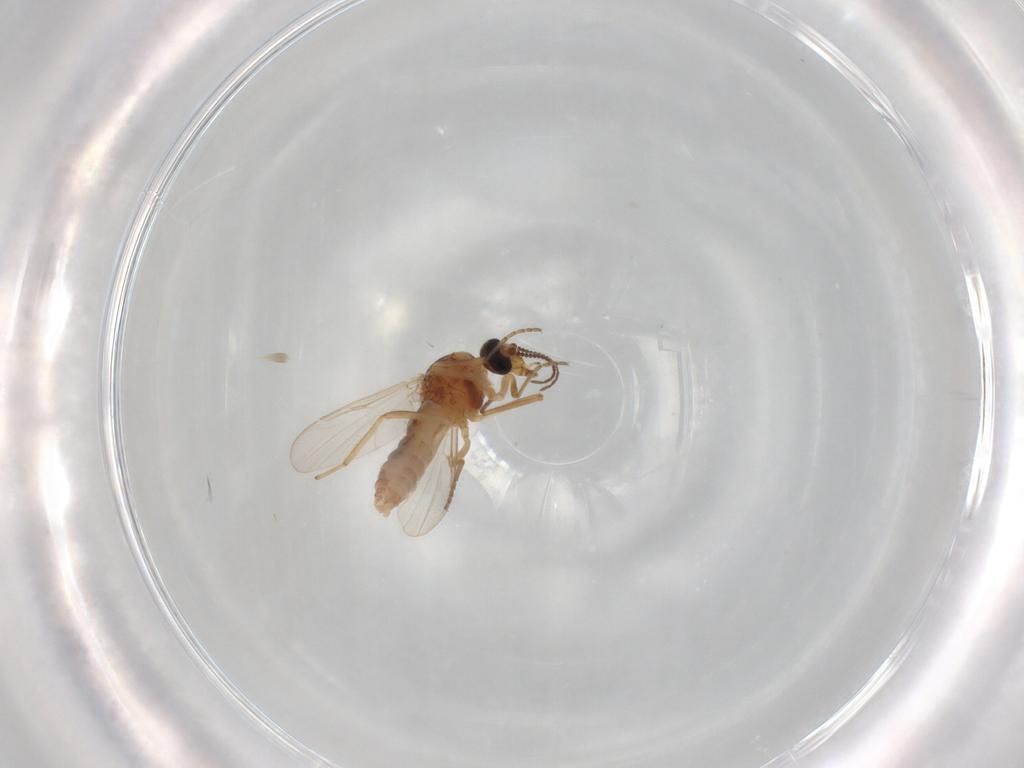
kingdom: Animalia
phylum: Arthropoda
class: Insecta
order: Diptera
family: Ceratopogonidae
